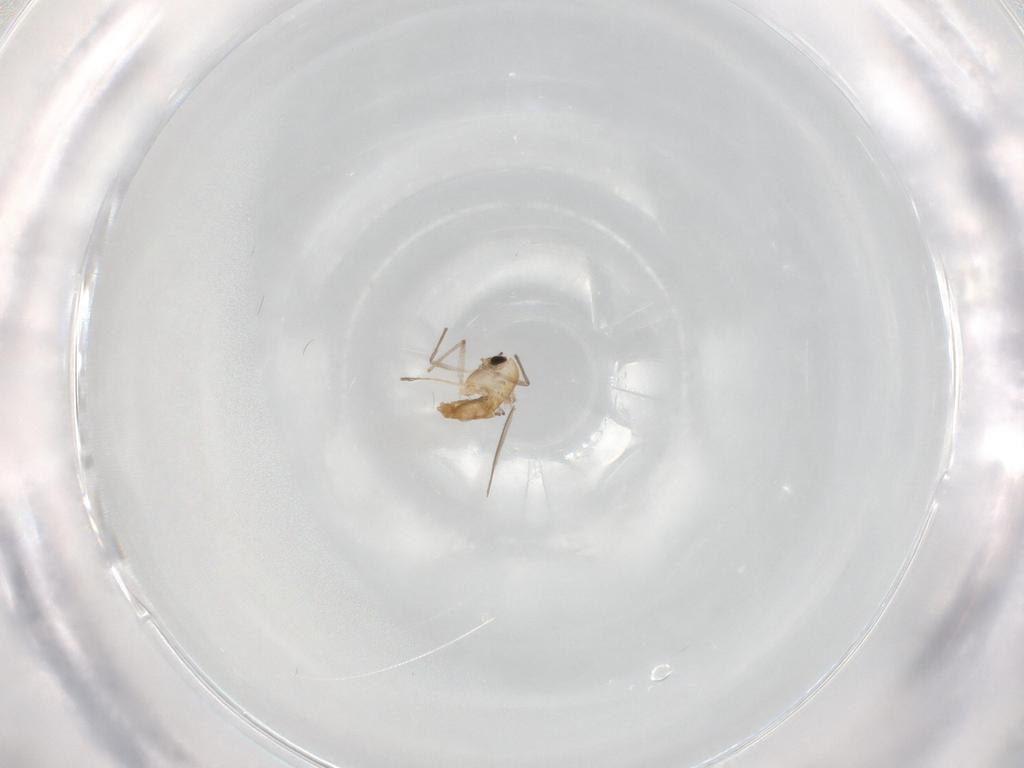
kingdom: Animalia
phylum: Arthropoda
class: Insecta
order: Diptera
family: Chironomidae
